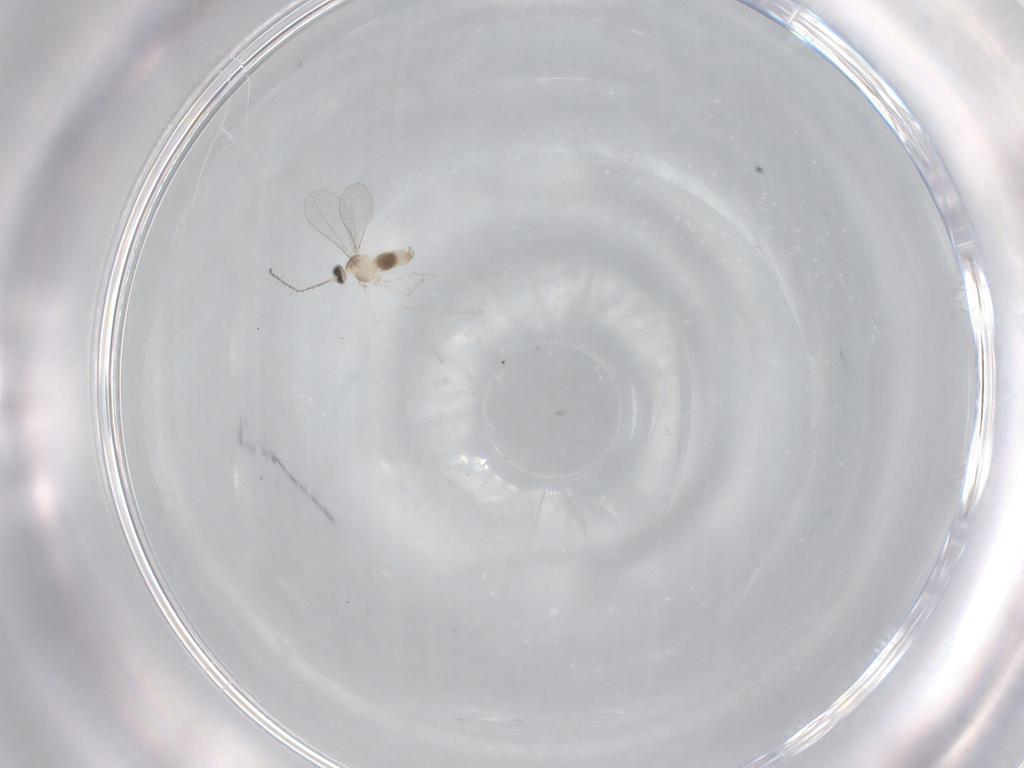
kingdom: Animalia
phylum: Arthropoda
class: Insecta
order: Diptera
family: Cecidomyiidae
